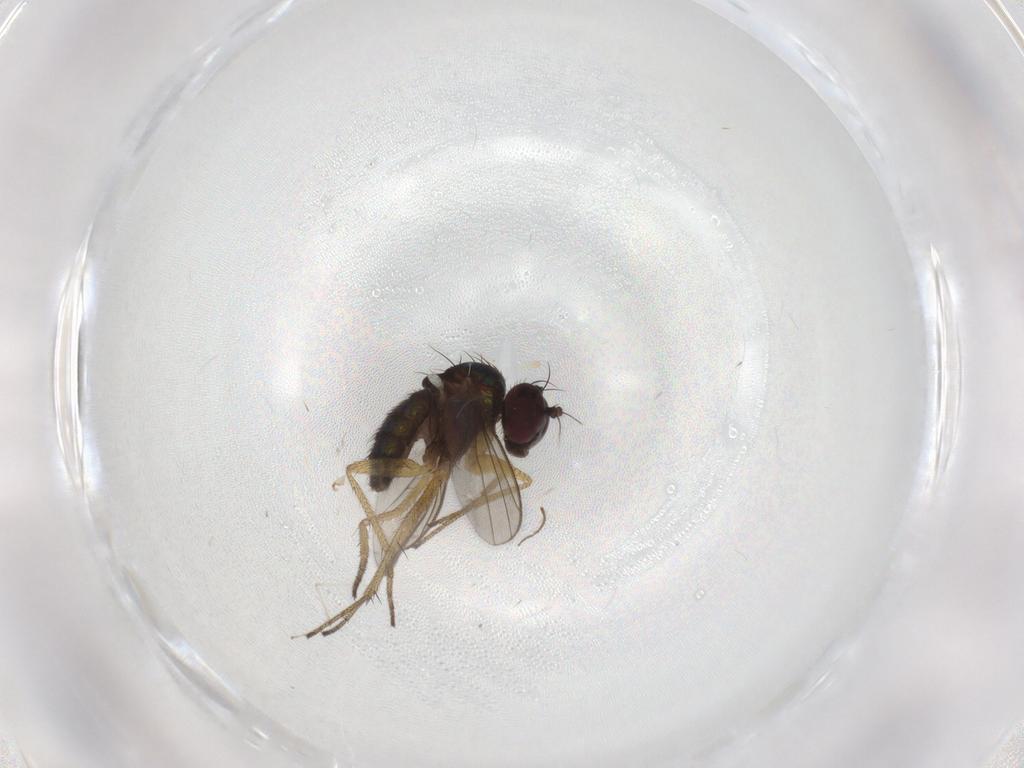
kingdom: Animalia
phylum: Arthropoda
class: Insecta
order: Diptera
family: Dolichopodidae
